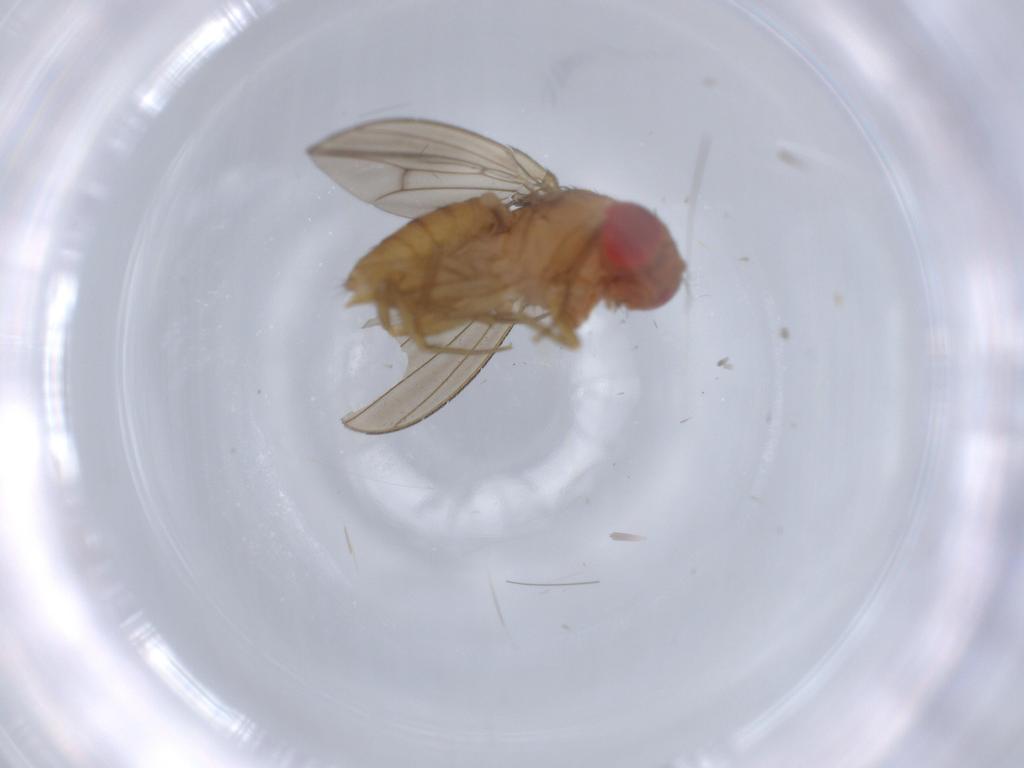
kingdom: Animalia
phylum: Arthropoda
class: Insecta
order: Diptera
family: Drosophilidae
